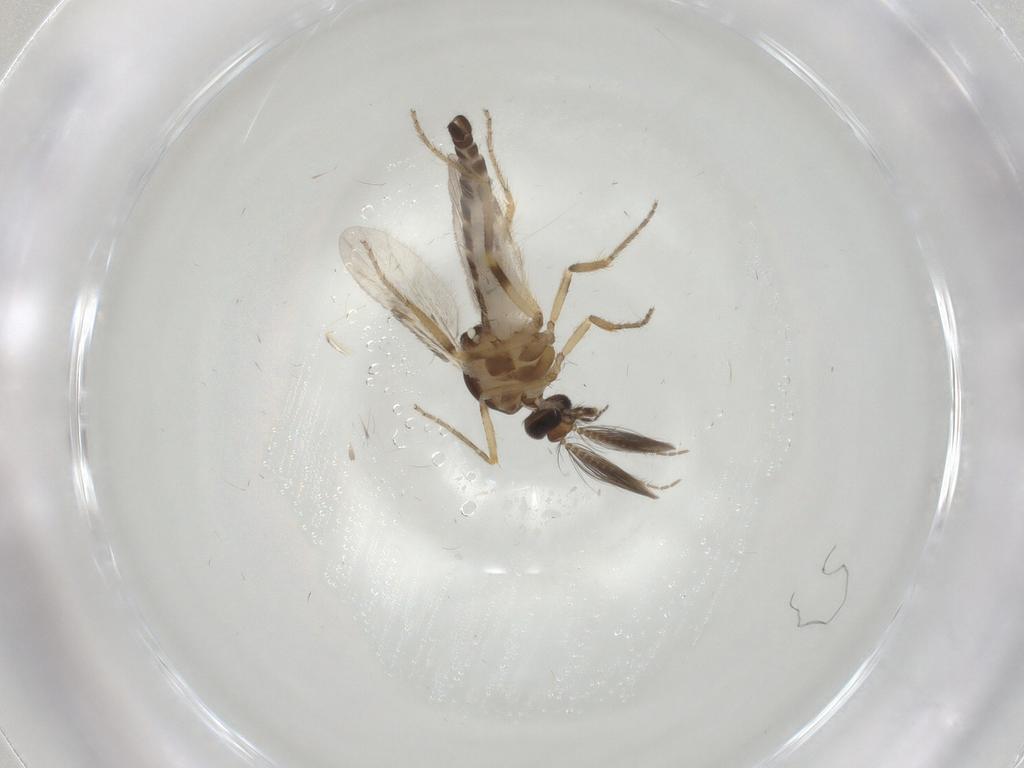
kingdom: Animalia
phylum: Arthropoda
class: Insecta
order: Diptera
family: Ceratopogonidae
